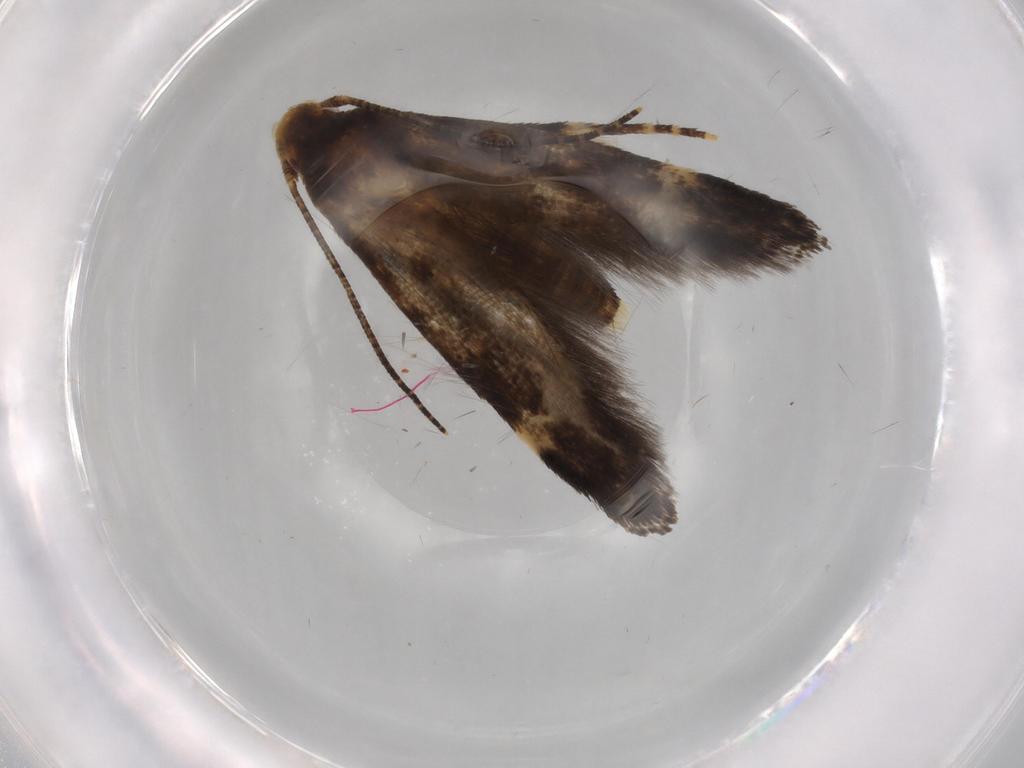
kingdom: Animalia
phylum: Arthropoda
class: Insecta
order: Lepidoptera
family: Momphidae
